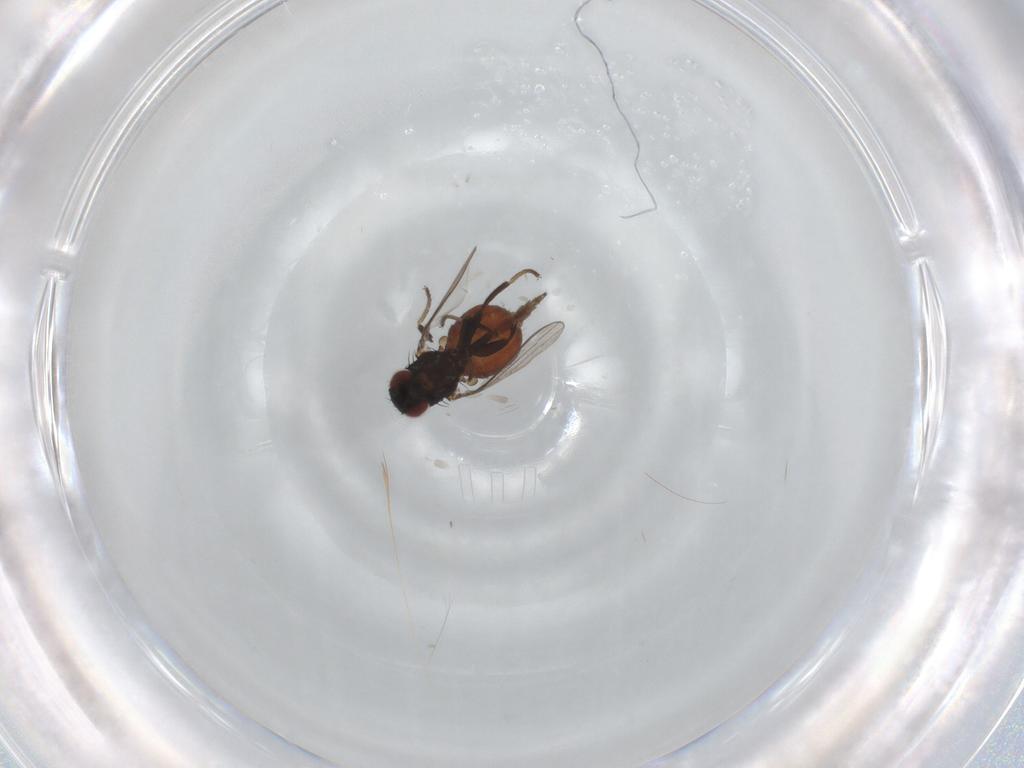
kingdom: Animalia
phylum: Arthropoda
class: Insecta
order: Diptera
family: Milichiidae
